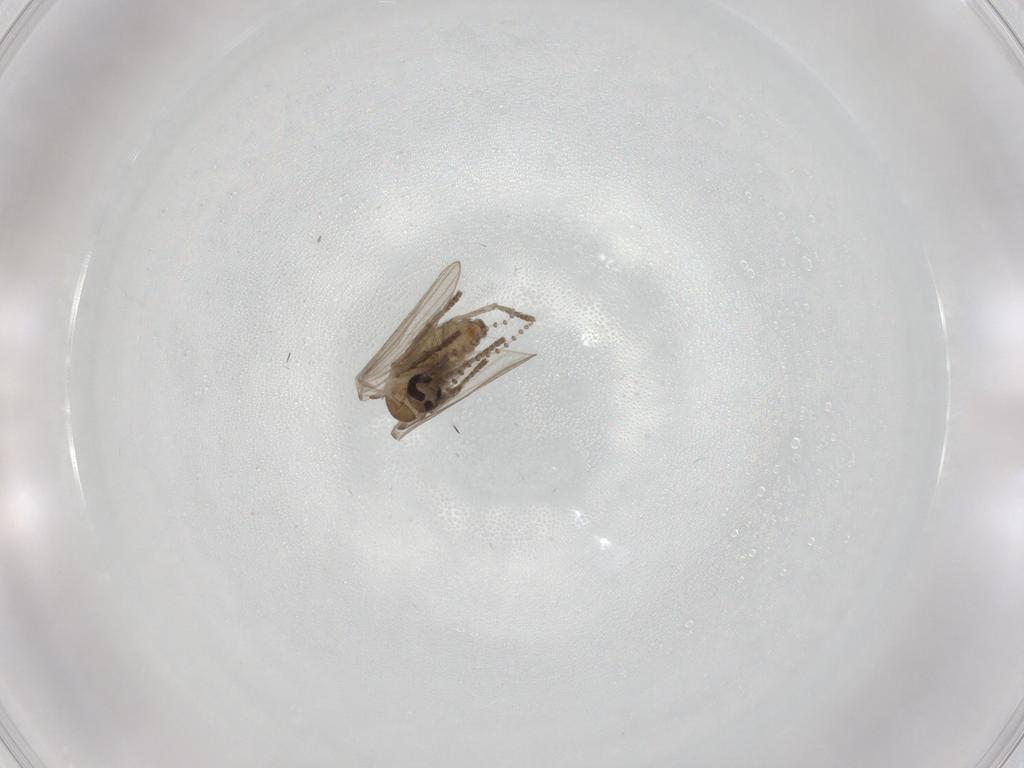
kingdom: Animalia
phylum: Arthropoda
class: Insecta
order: Diptera
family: Psychodidae
